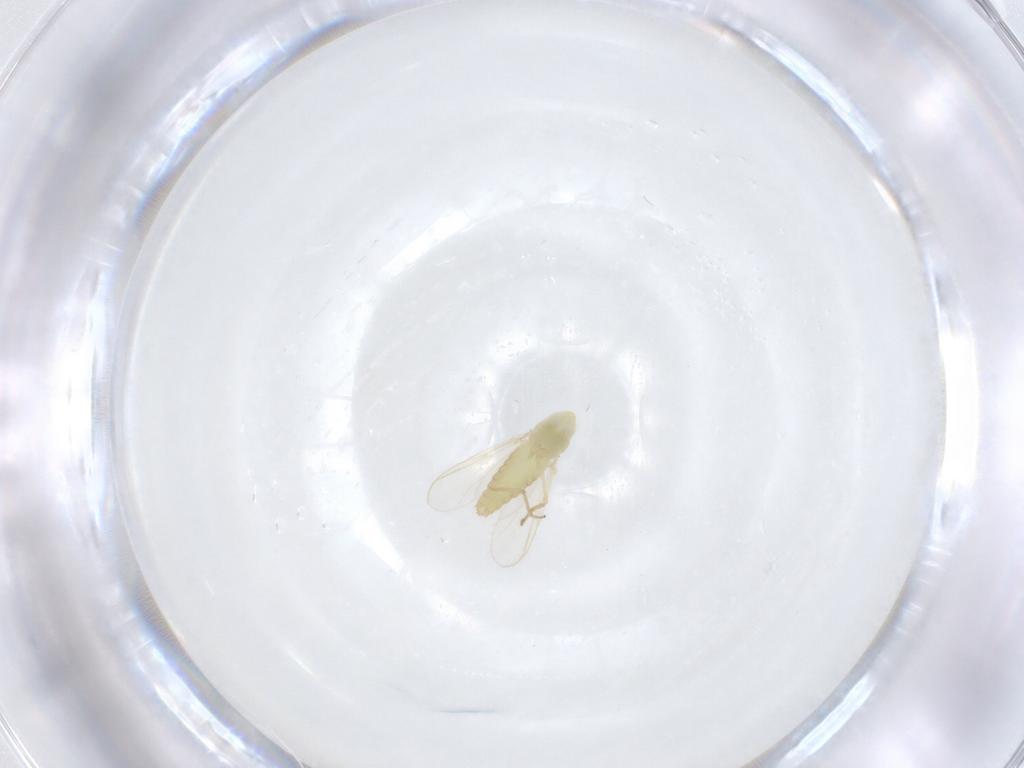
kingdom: Animalia
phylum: Arthropoda
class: Insecta
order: Diptera
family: Chironomidae
